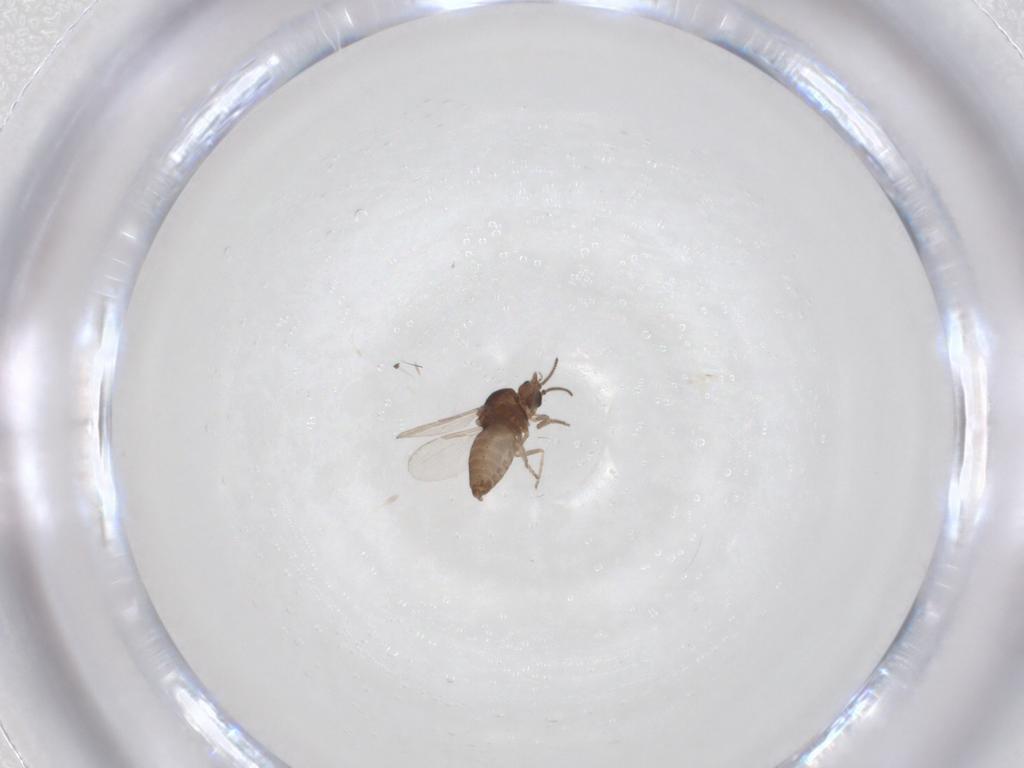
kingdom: Animalia
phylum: Arthropoda
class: Insecta
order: Diptera
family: Ceratopogonidae
